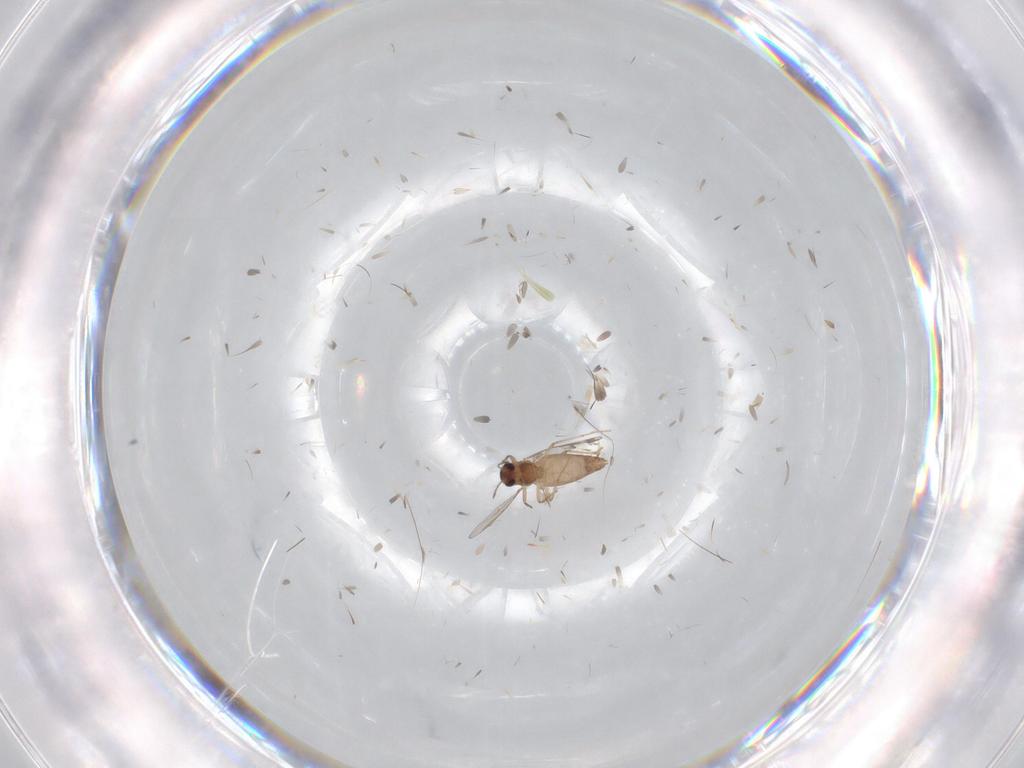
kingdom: Animalia
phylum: Arthropoda
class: Insecta
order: Diptera
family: Chironomidae
